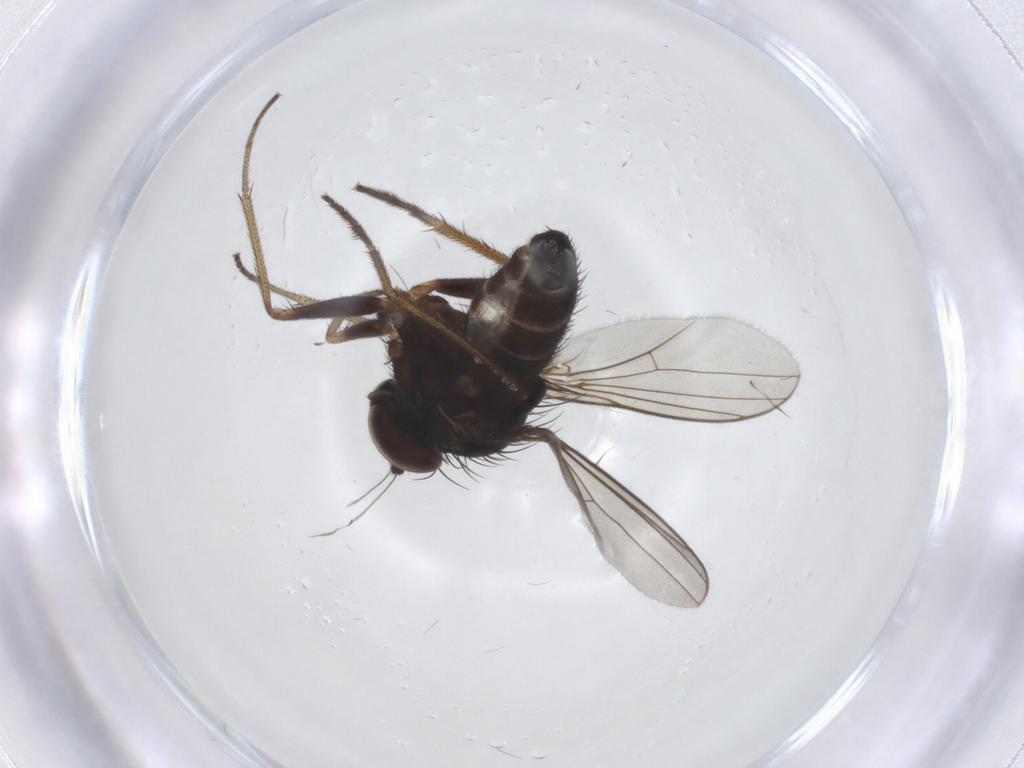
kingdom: Animalia
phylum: Arthropoda
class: Insecta
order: Diptera
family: Dolichopodidae
